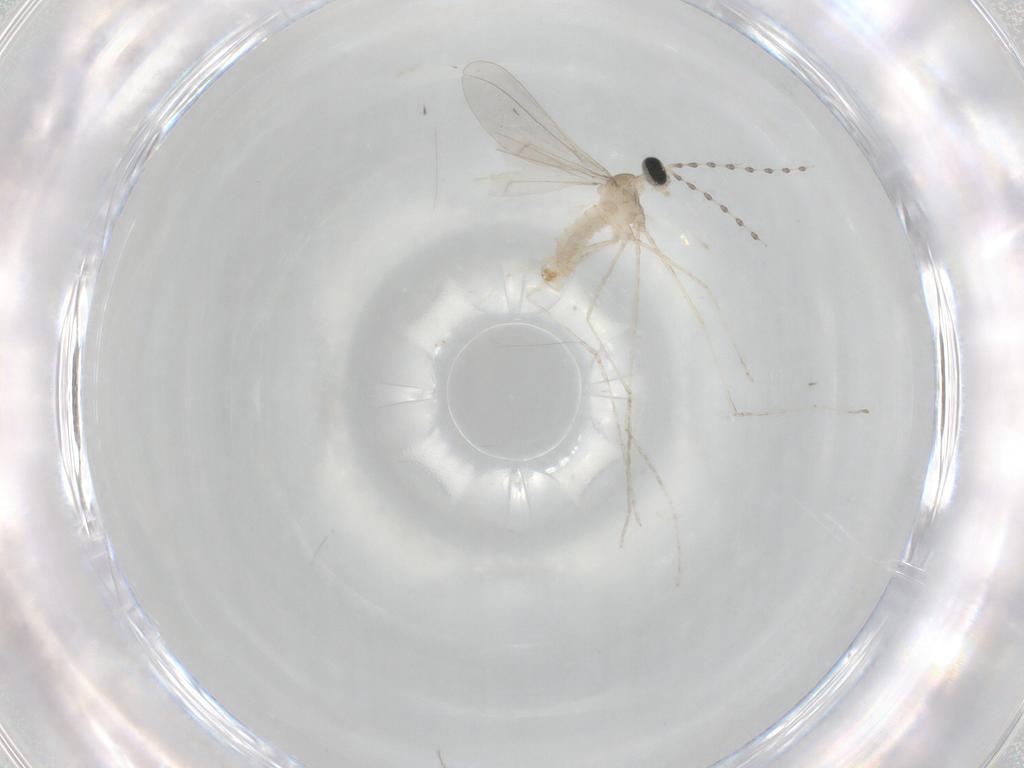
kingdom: Animalia
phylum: Arthropoda
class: Insecta
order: Diptera
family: Cecidomyiidae
